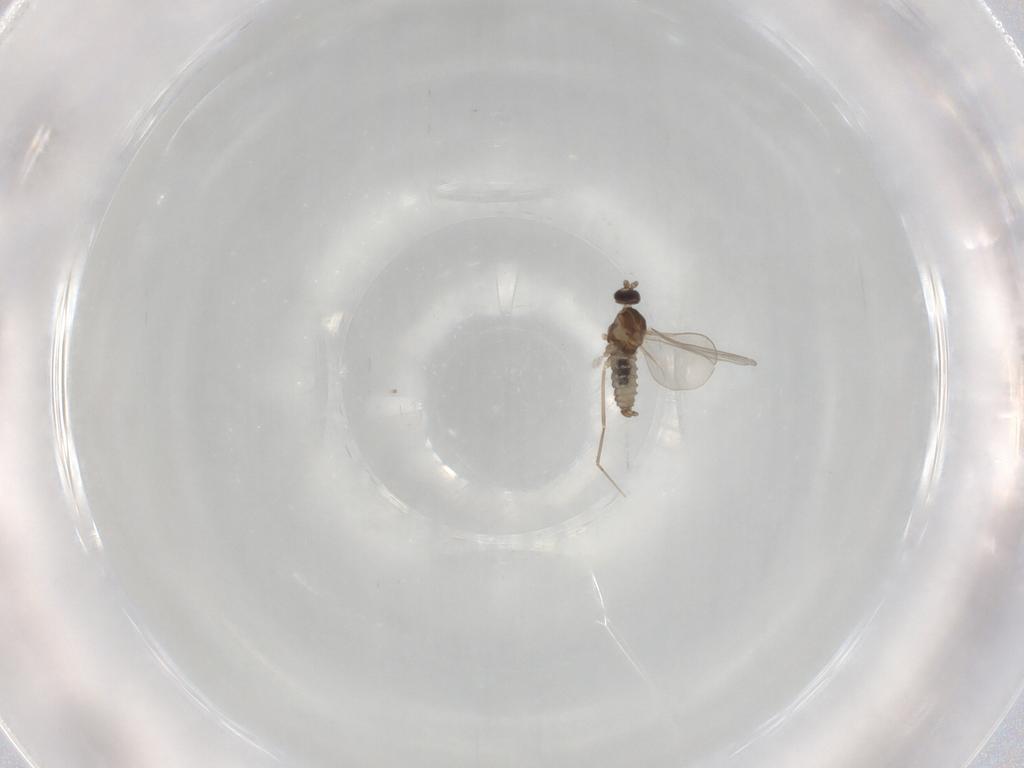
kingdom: Animalia
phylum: Arthropoda
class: Insecta
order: Diptera
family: Cecidomyiidae
